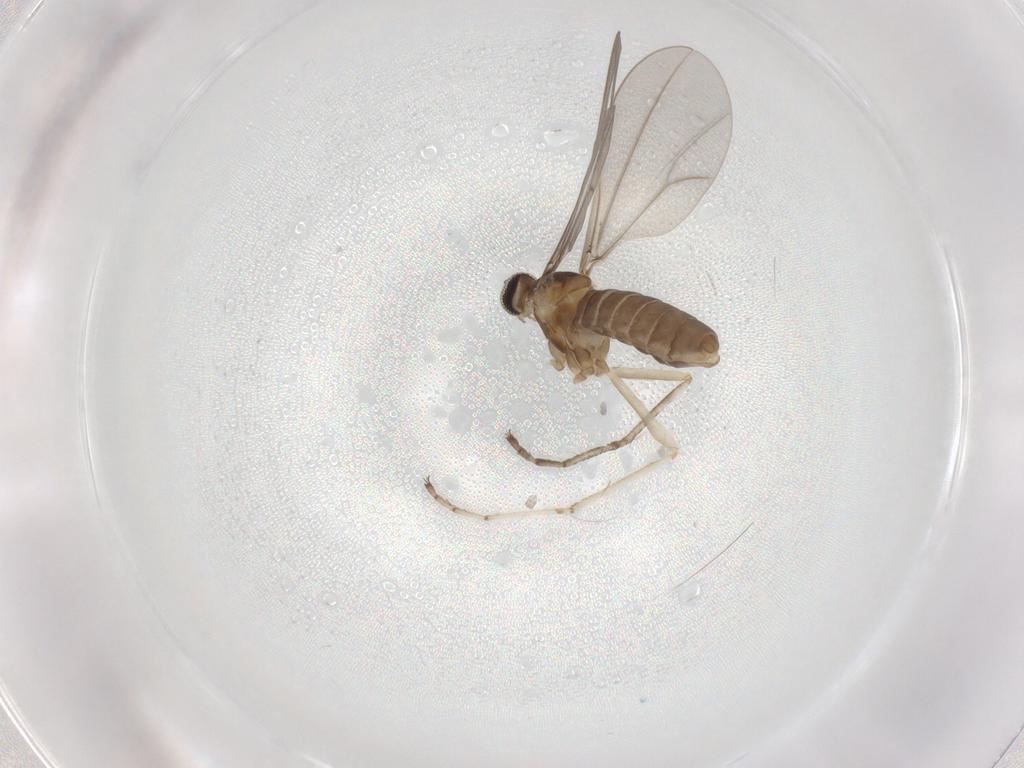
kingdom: Animalia
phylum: Arthropoda
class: Insecta
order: Diptera
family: Cecidomyiidae
